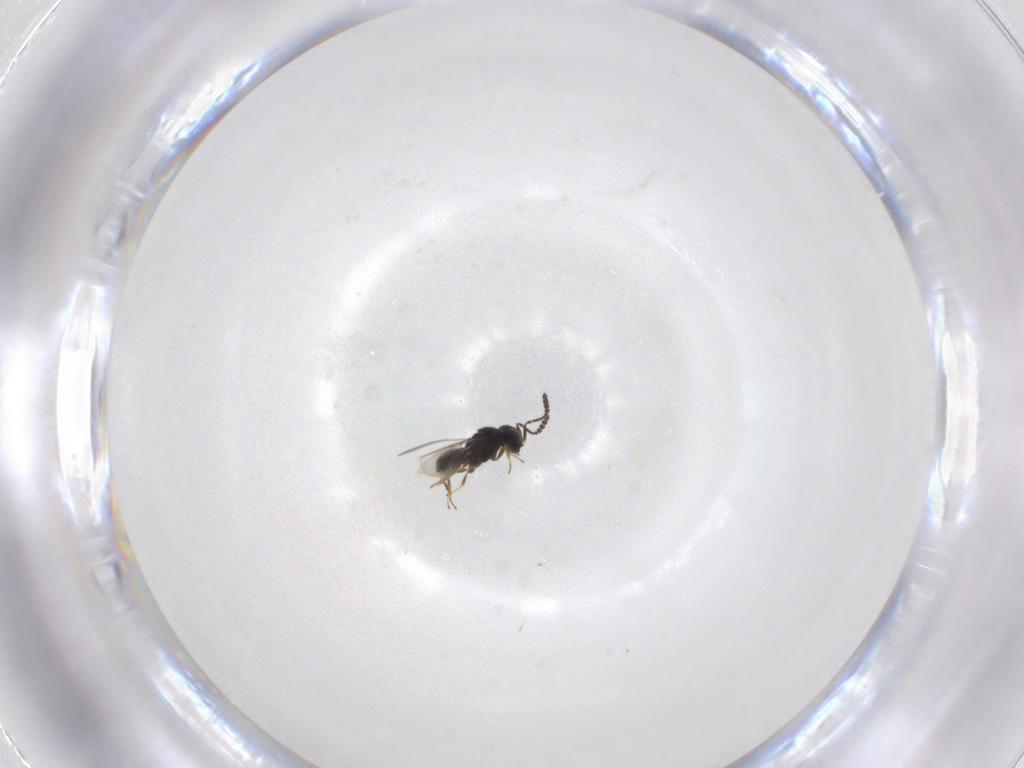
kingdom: Animalia
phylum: Arthropoda
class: Insecta
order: Hymenoptera
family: Scelionidae
